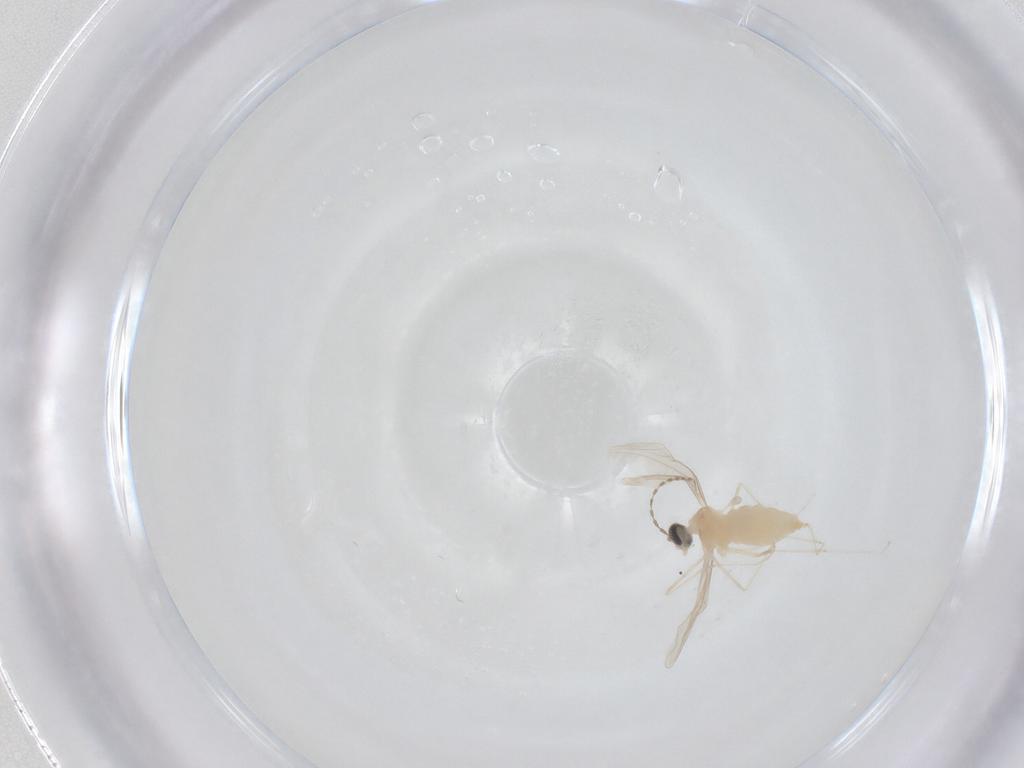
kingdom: Animalia
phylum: Arthropoda
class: Insecta
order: Diptera
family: Cecidomyiidae
